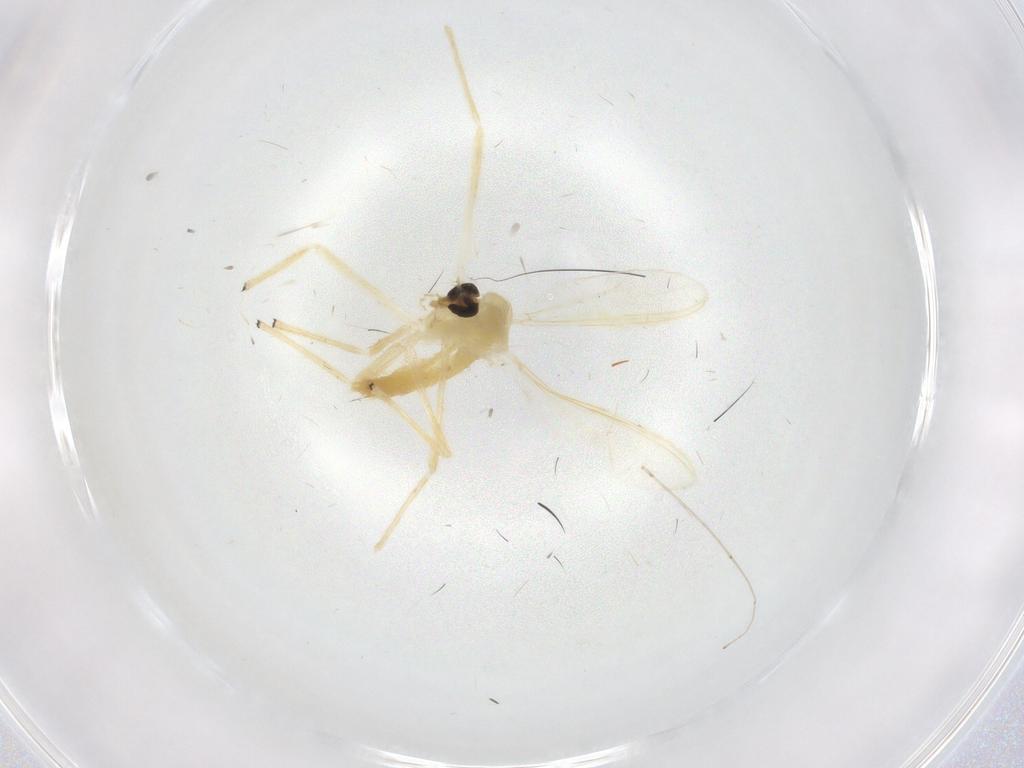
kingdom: Animalia
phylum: Arthropoda
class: Insecta
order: Diptera
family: Chironomidae
